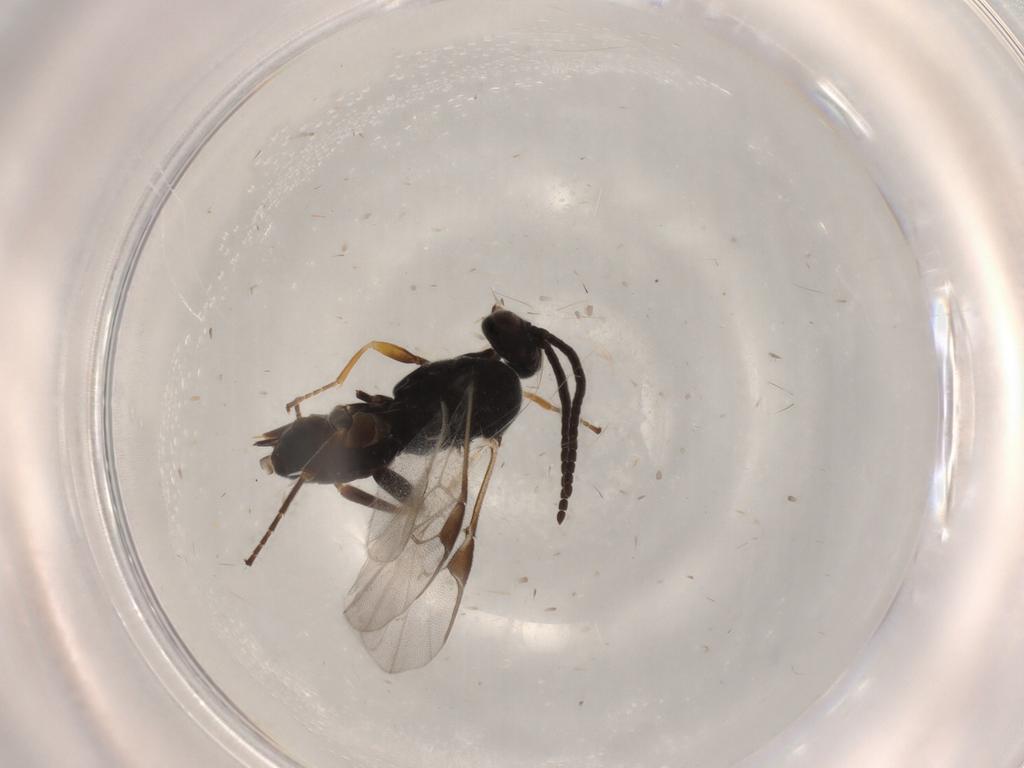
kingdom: Animalia
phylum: Arthropoda
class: Insecta
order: Hymenoptera
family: Braconidae
